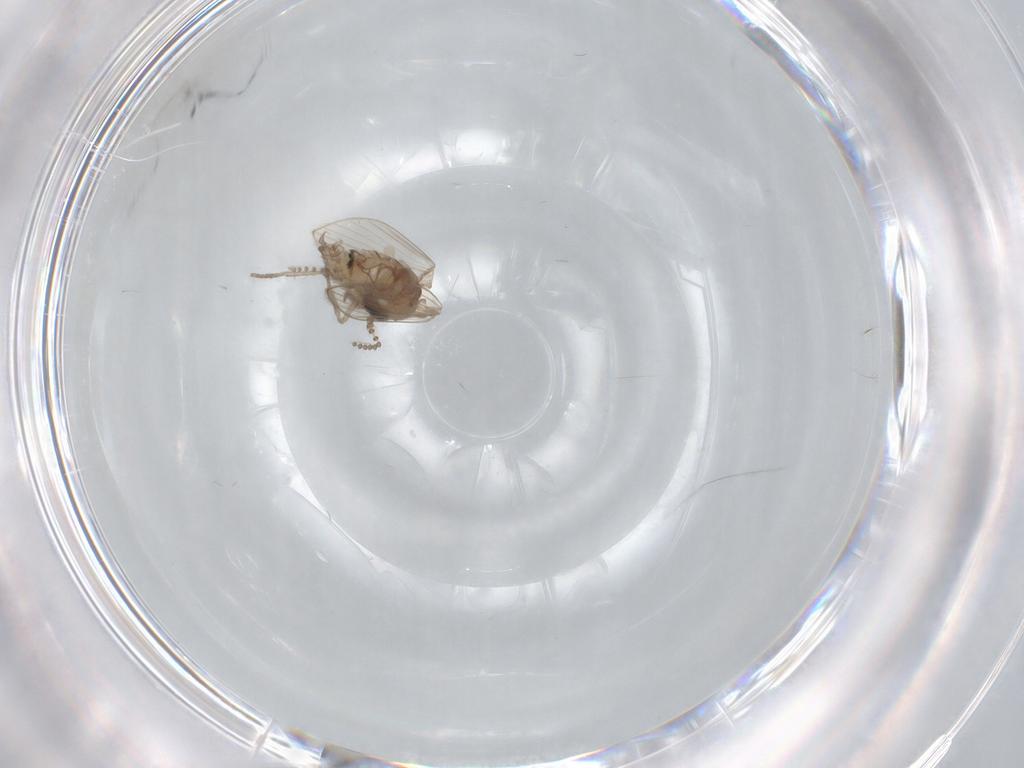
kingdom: Animalia
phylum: Arthropoda
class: Insecta
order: Diptera
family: Psychodidae
